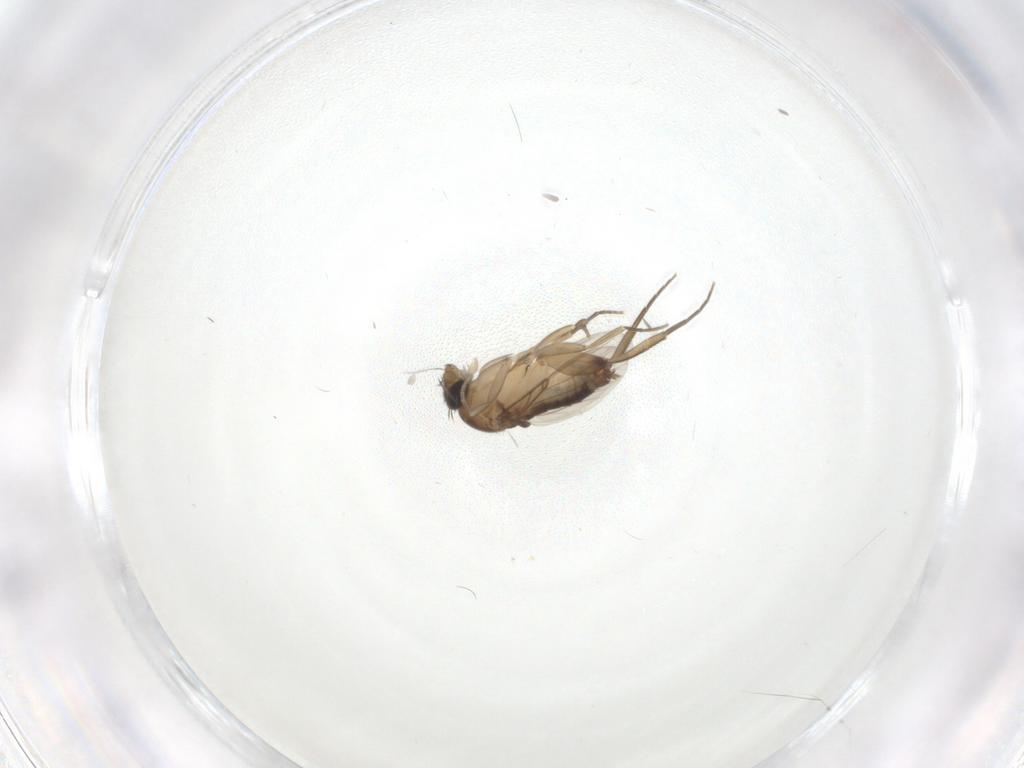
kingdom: Animalia
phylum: Arthropoda
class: Insecta
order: Diptera
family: Phoridae
